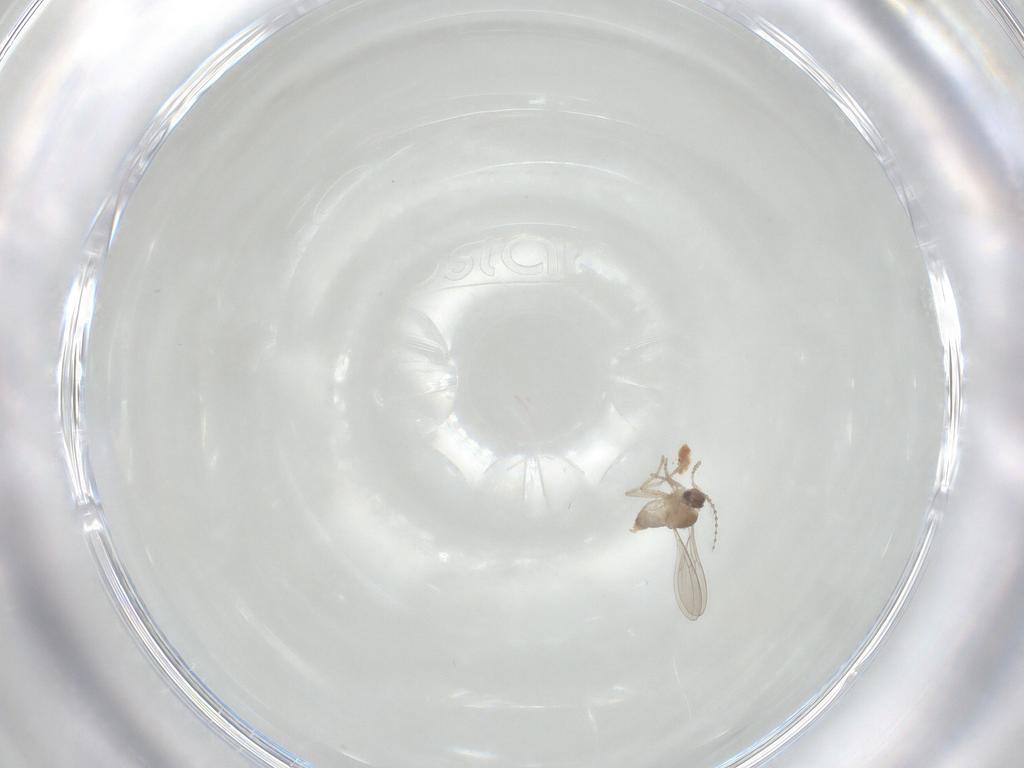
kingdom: Animalia
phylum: Arthropoda
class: Insecta
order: Diptera
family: Cecidomyiidae
